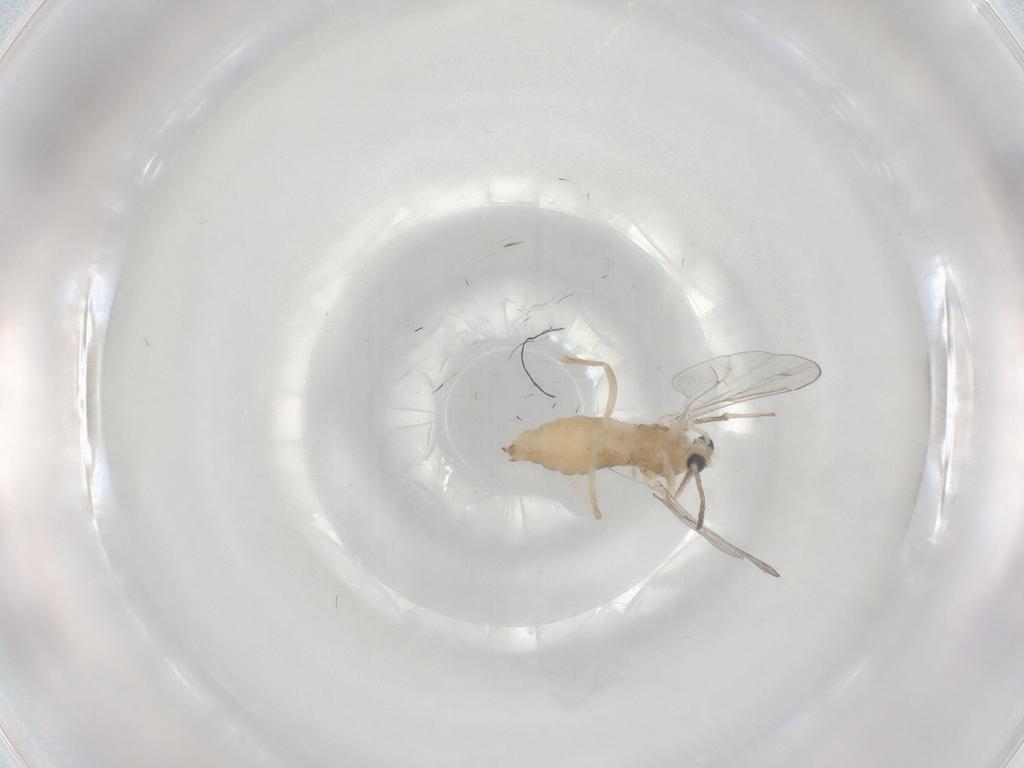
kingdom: Animalia
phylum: Arthropoda
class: Insecta
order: Diptera
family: Cecidomyiidae
